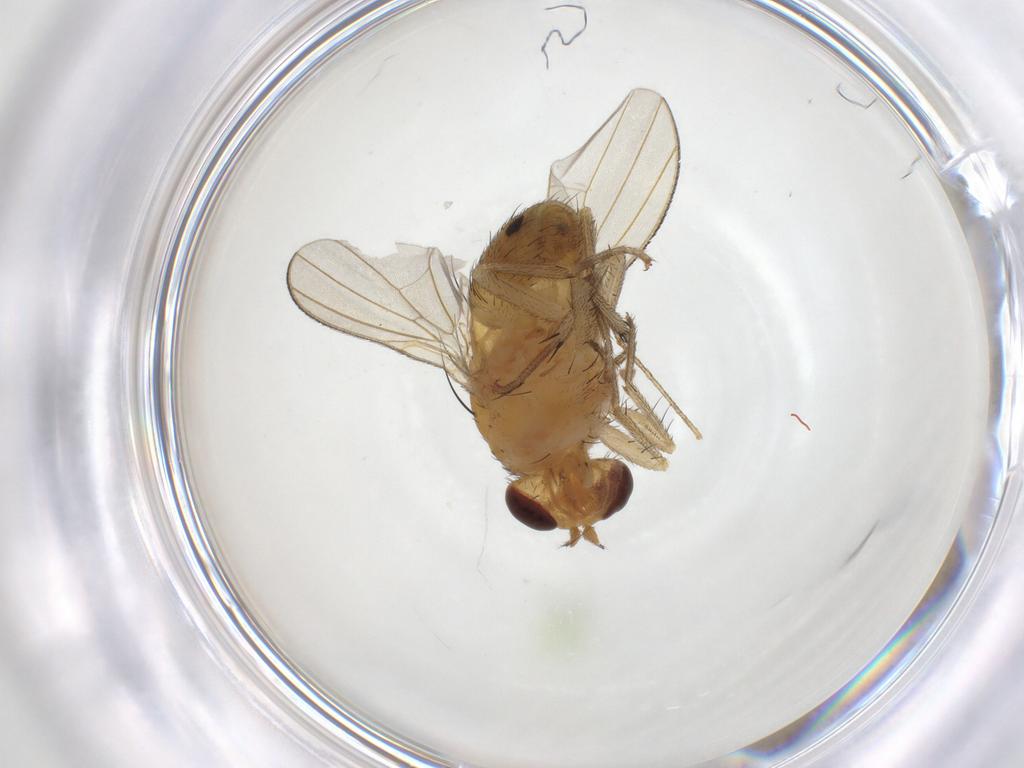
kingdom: Animalia
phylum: Arthropoda
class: Insecta
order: Diptera
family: Lauxaniidae
